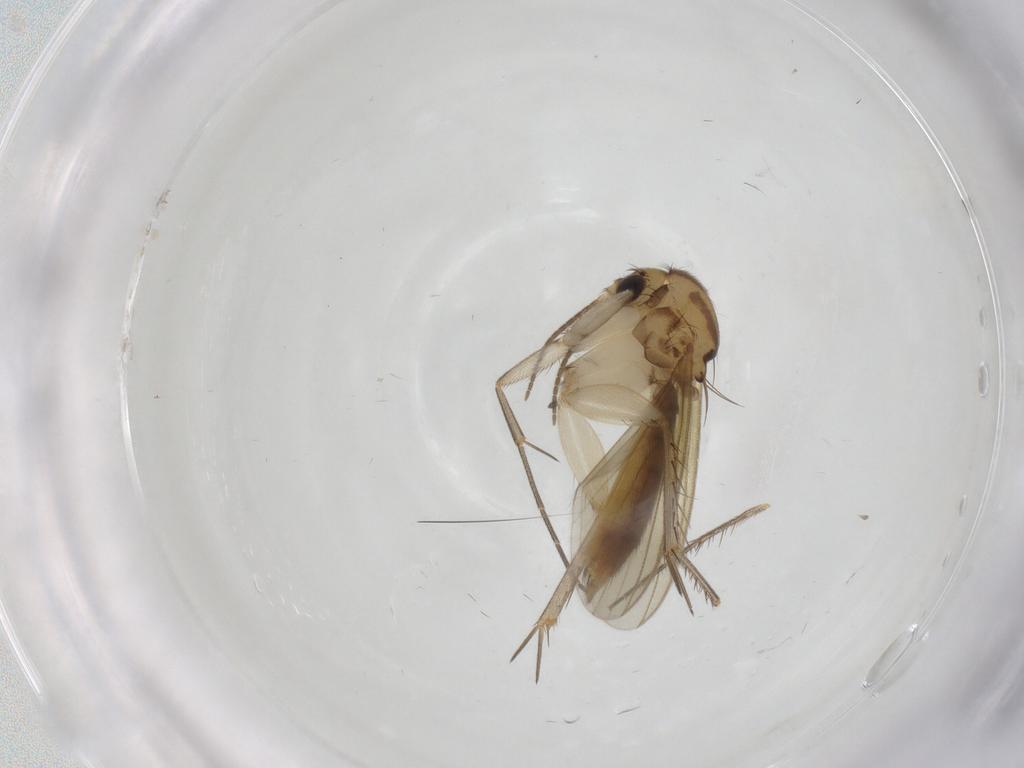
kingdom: Animalia
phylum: Arthropoda
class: Insecta
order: Diptera
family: Mycetophilidae
